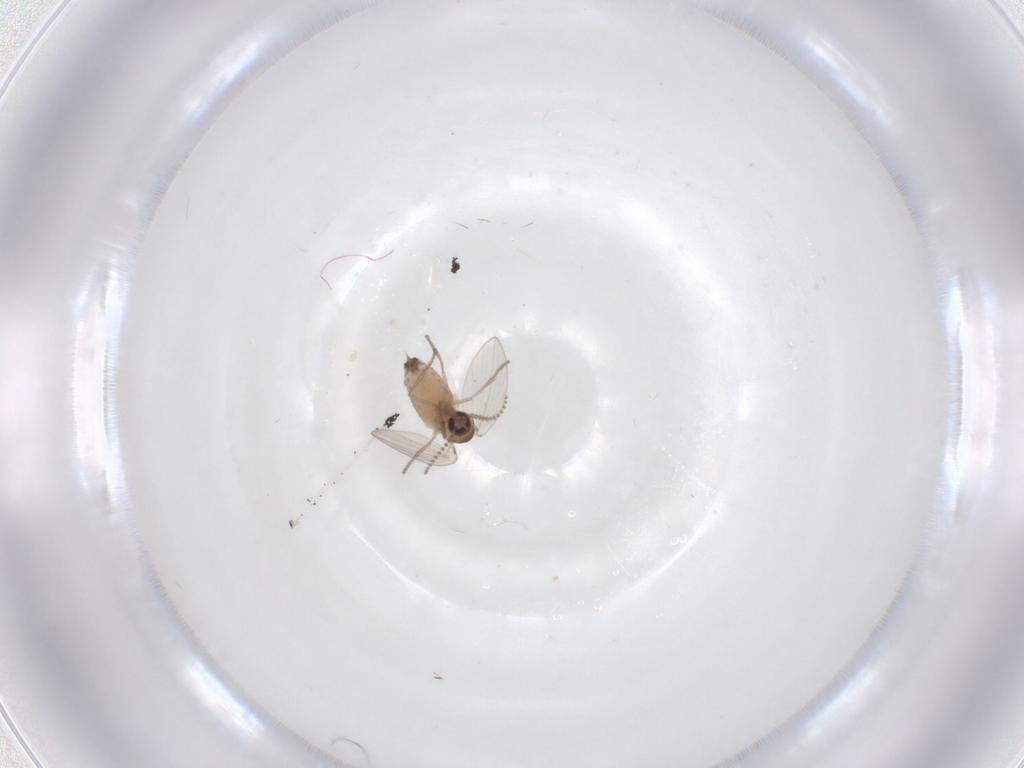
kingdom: Animalia
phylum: Arthropoda
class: Insecta
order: Diptera
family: Psychodidae
